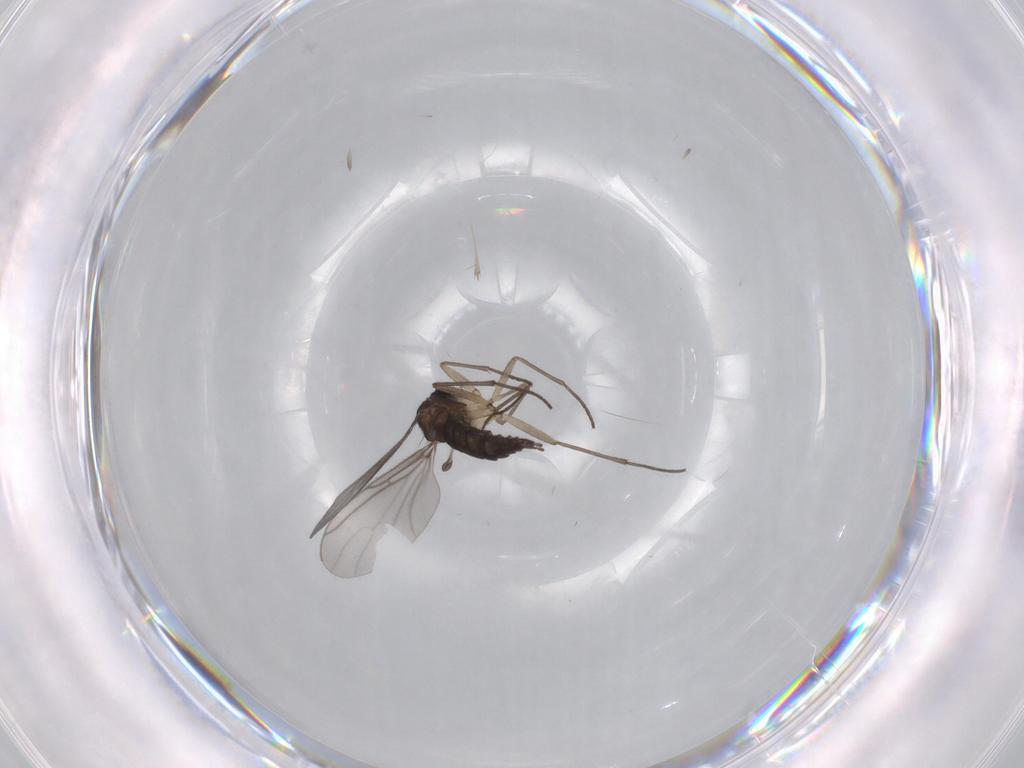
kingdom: Animalia
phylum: Arthropoda
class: Insecta
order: Diptera
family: Sciaridae
